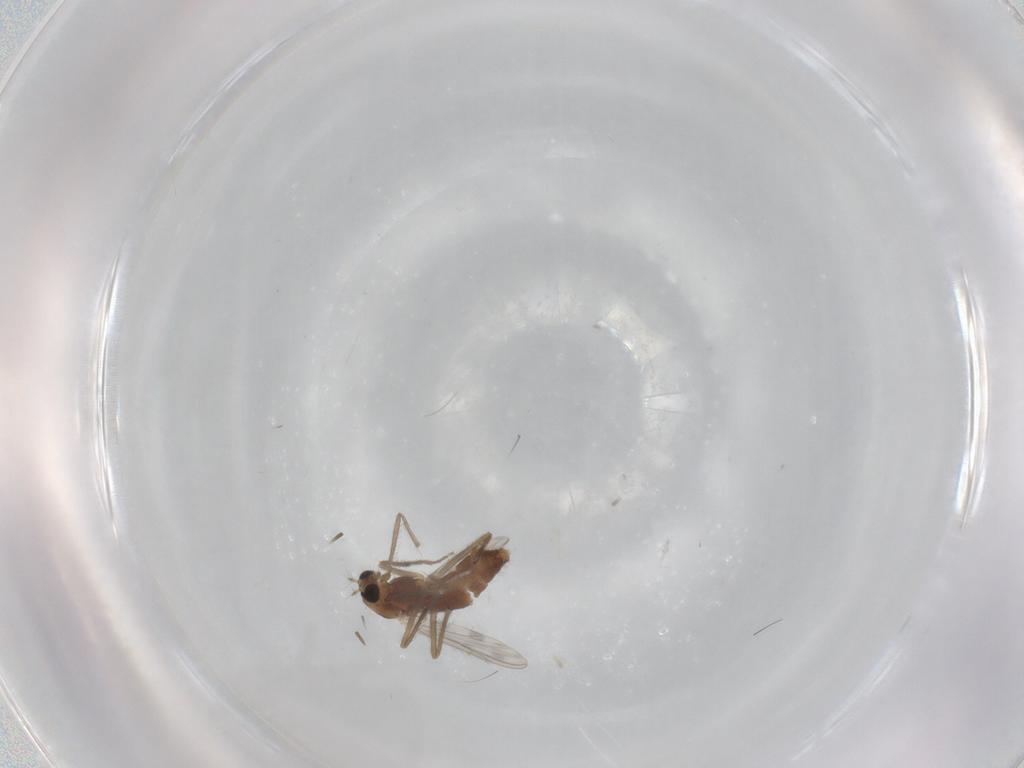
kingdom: Animalia
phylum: Arthropoda
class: Insecta
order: Diptera
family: Chironomidae
